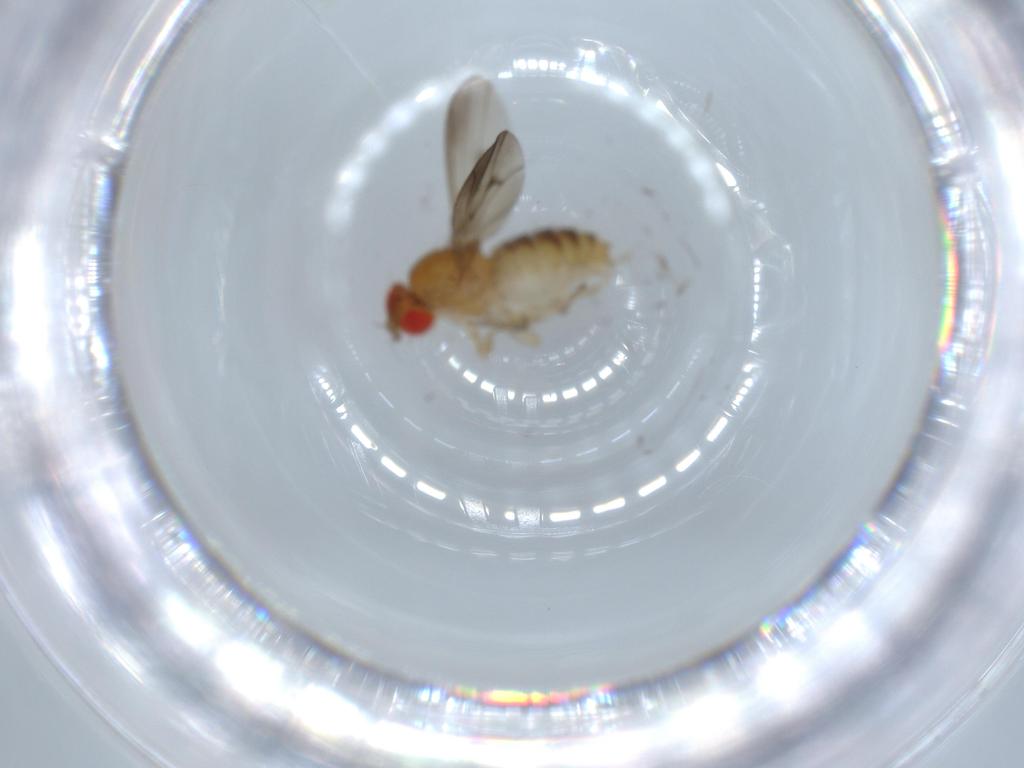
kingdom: Animalia
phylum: Arthropoda
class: Insecta
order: Diptera
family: Drosophilidae
